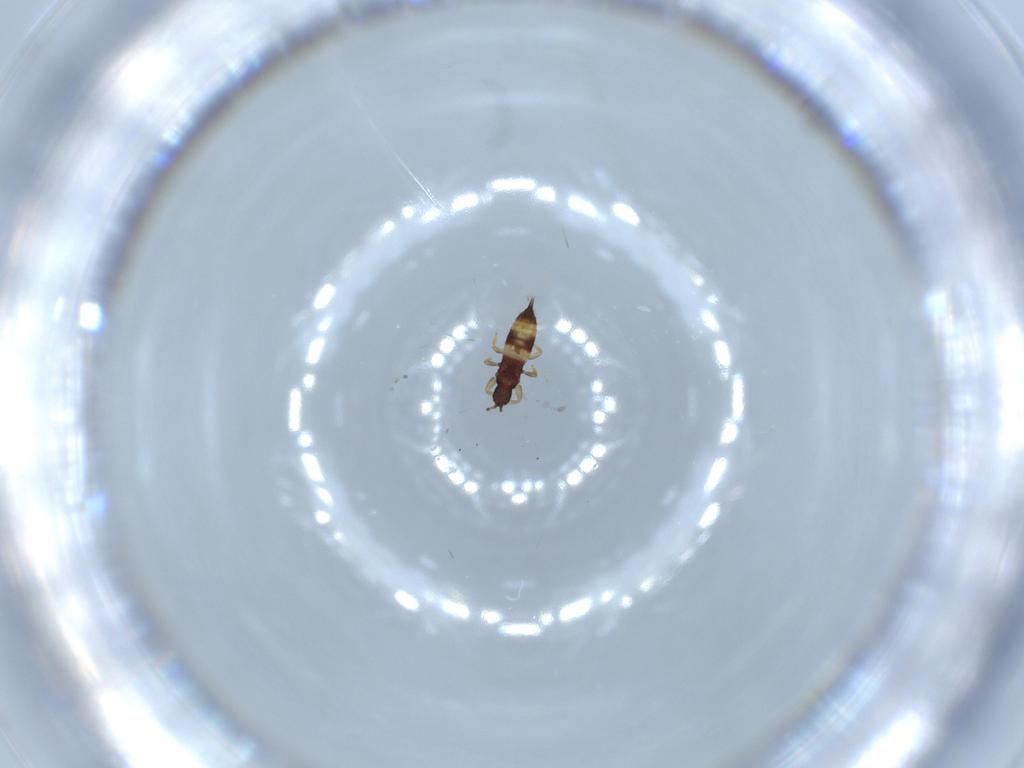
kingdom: Animalia
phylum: Arthropoda
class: Insecta
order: Thysanoptera
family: Phlaeothripidae
